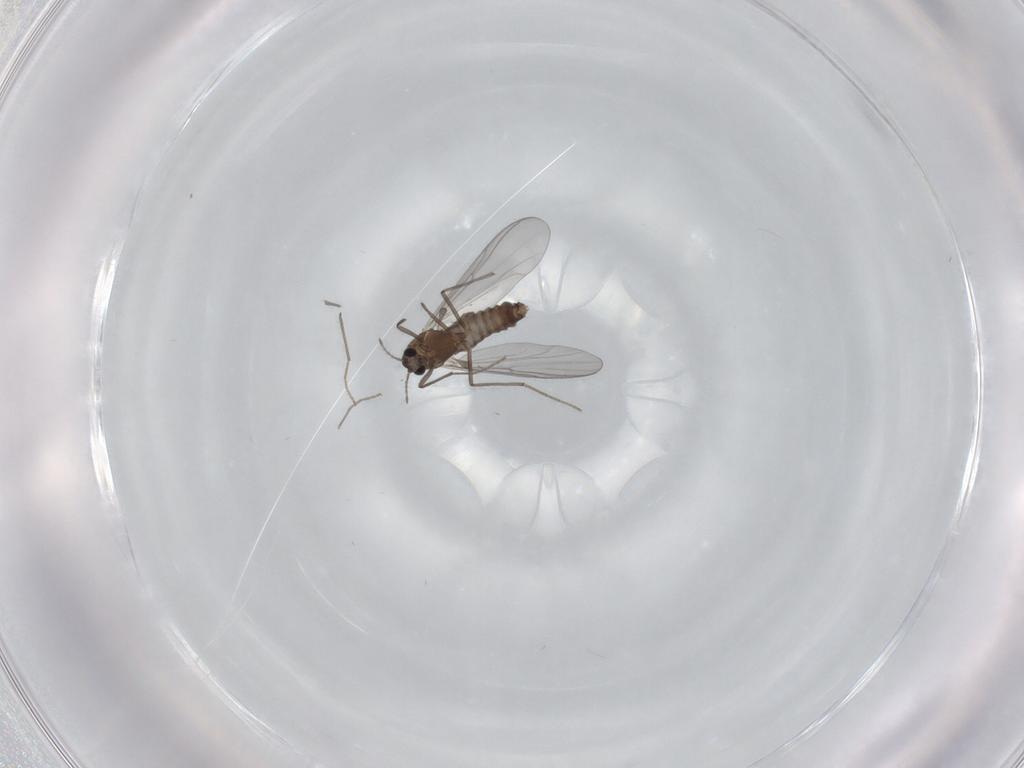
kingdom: Animalia
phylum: Arthropoda
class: Insecta
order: Diptera
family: Chironomidae
